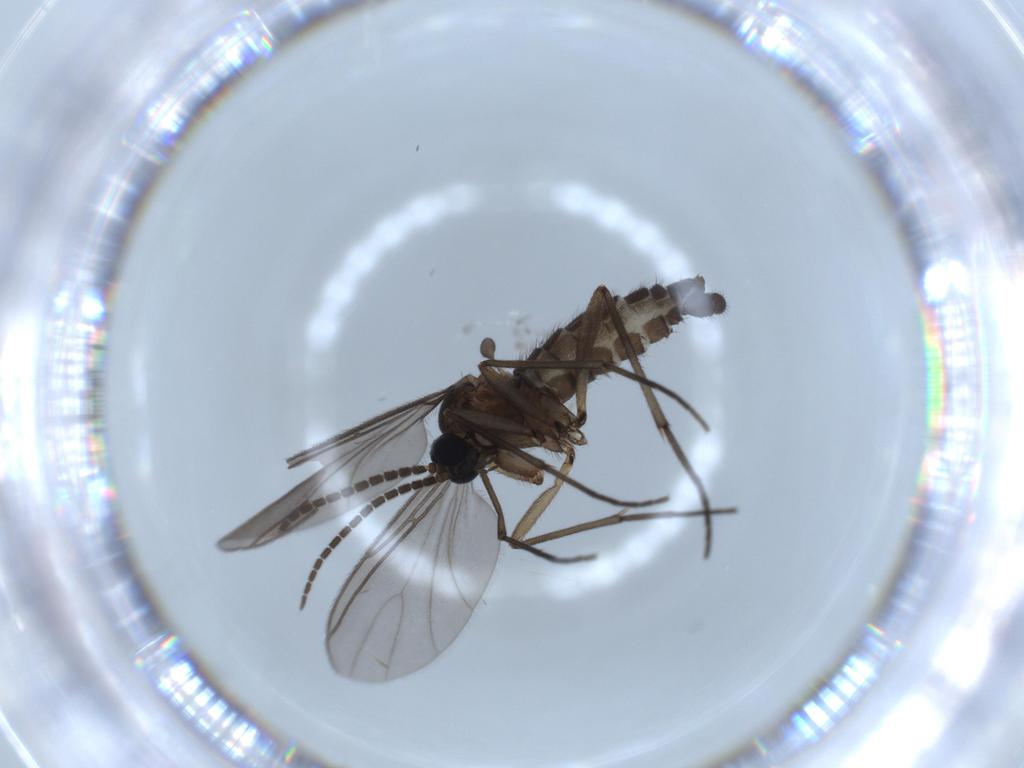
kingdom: Animalia
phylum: Arthropoda
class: Insecta
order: Diptera
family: Sciaridae
